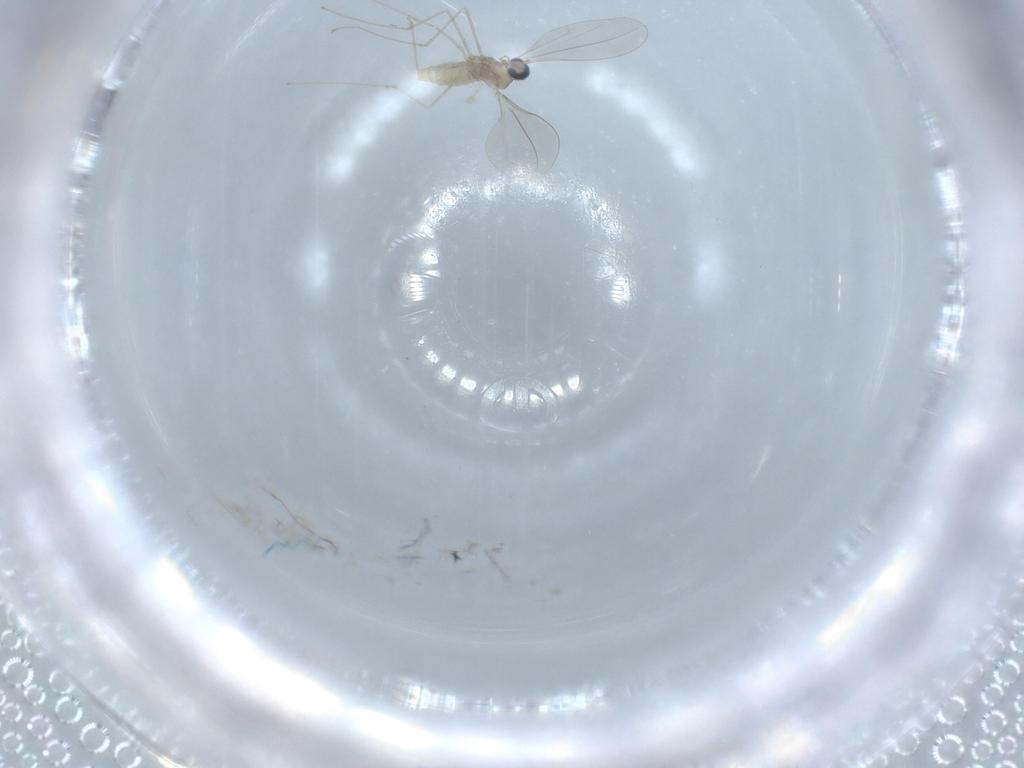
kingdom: Animalia
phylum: Arthropoda
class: Insecta
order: Diptera
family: Cecidomyiidae
